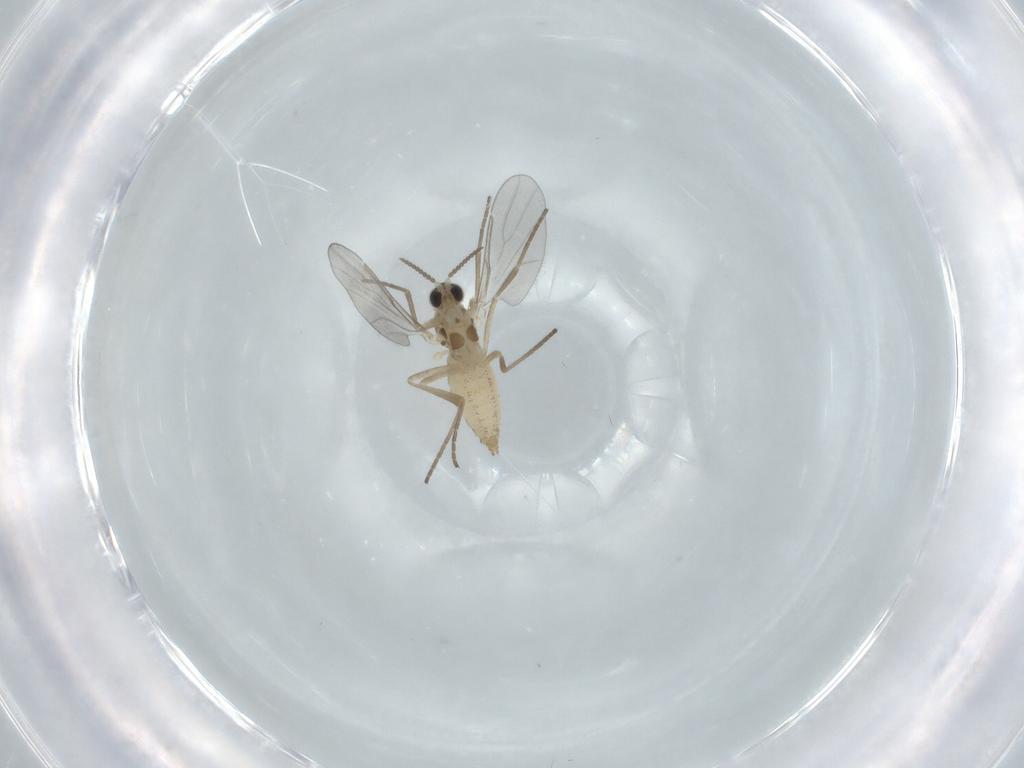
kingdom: Animalia
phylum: Arthropoda
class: Insecta
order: Diptera
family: Cecidomyiidae
